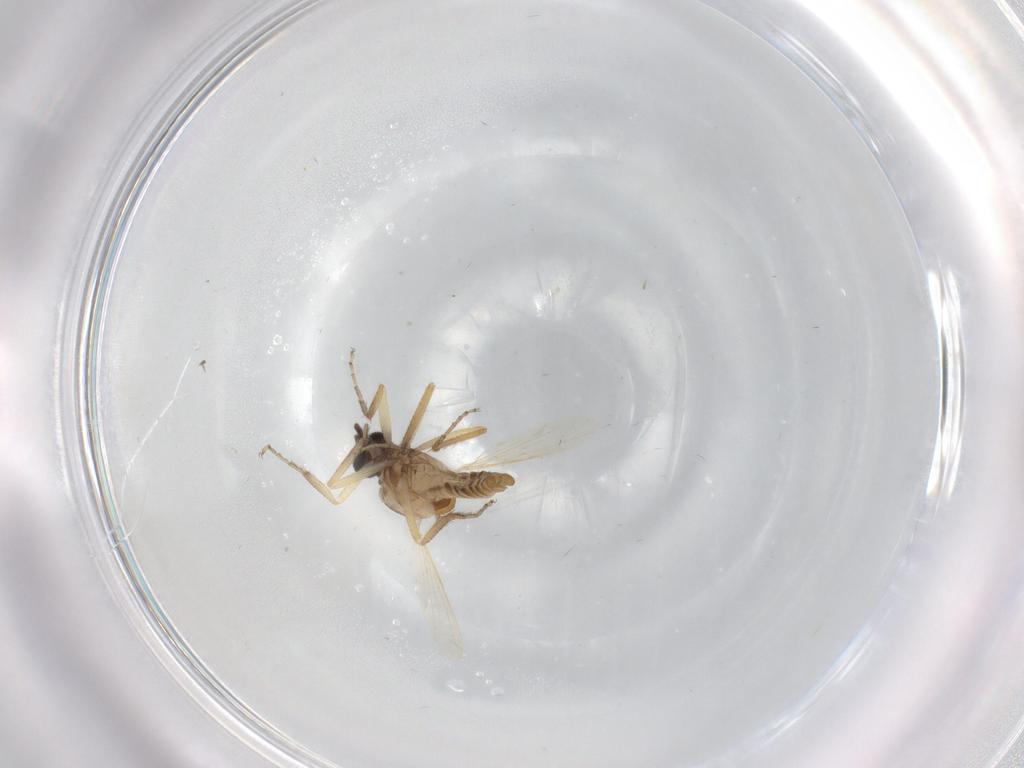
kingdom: Animalia
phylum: Arthropoda
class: Insecta
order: Diptera
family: Ceratopogonidae
